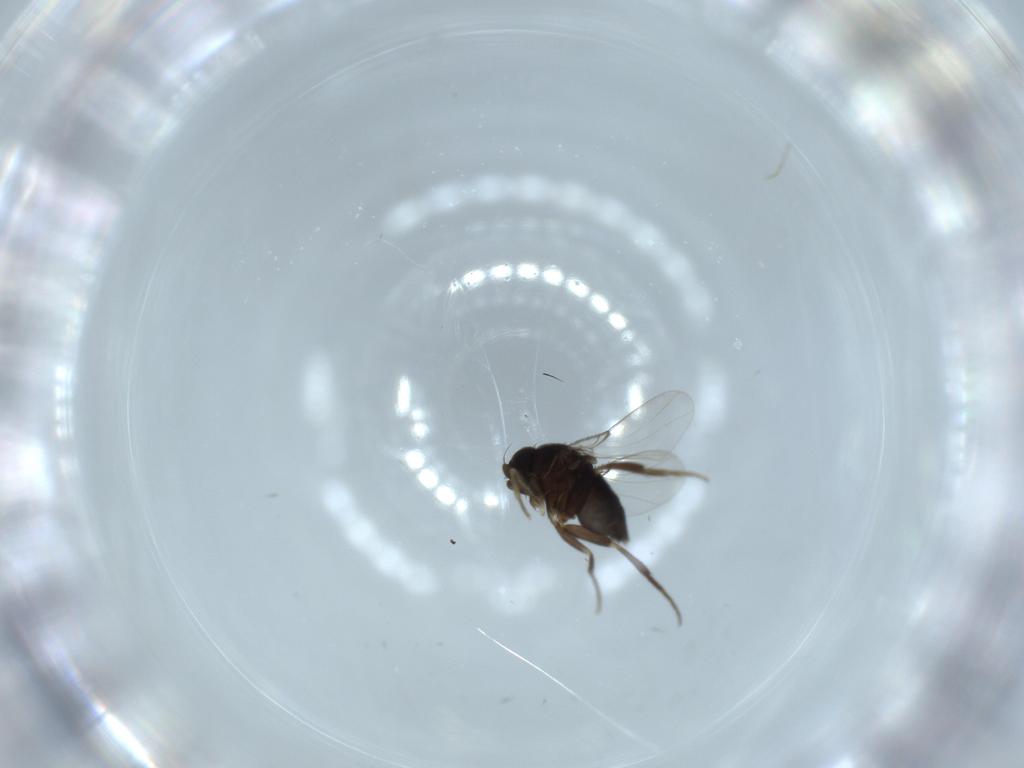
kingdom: Animalia
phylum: Arthropoda
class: Insecta
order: Diptera
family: Phoridae
